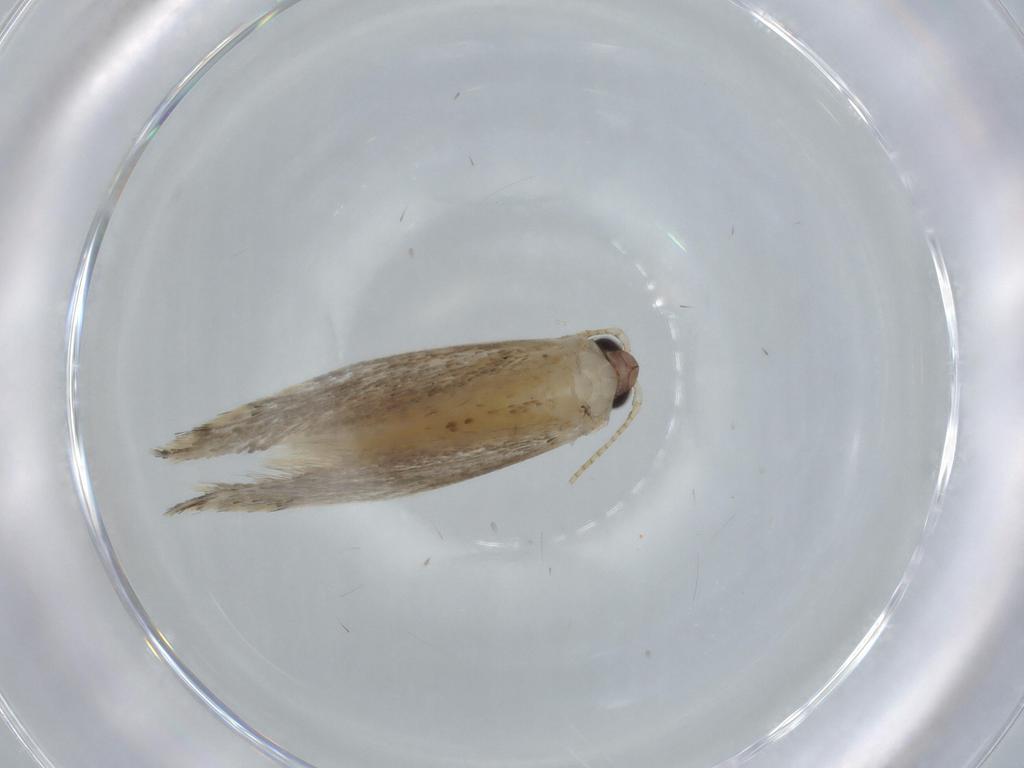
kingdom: Animalia
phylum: Arthropoda
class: Insecta
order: Lepidoptera
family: Tineidae
